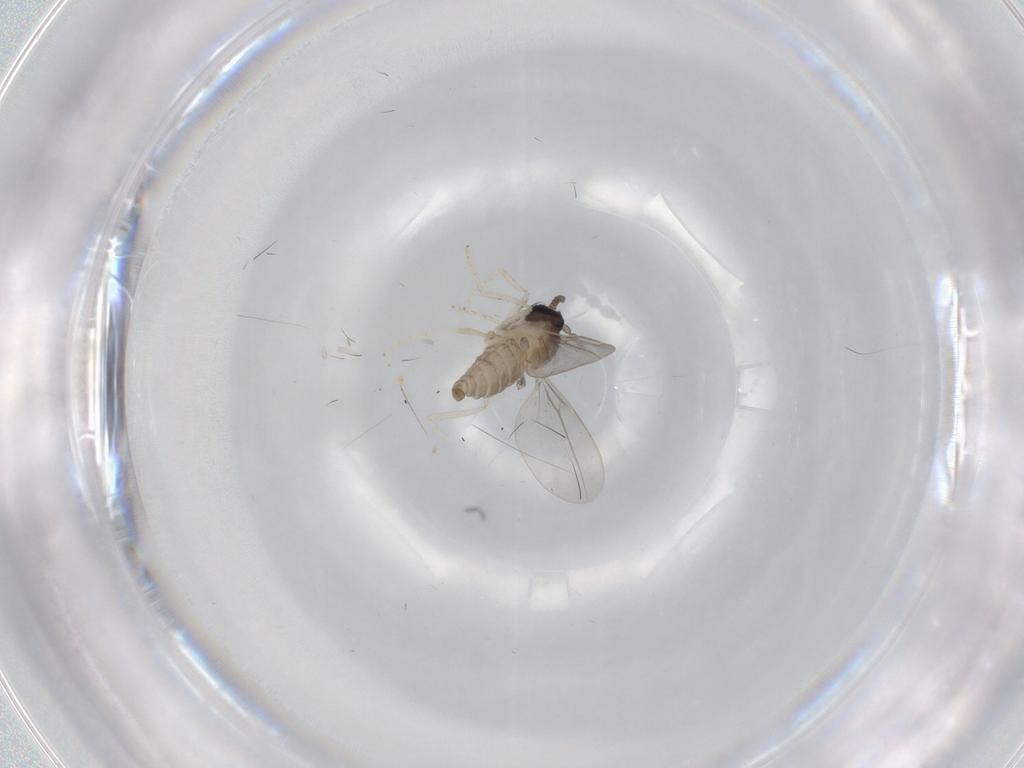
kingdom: Animalia
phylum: Arthropoda
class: Insecta
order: Diptera
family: Cecidomyiidae
